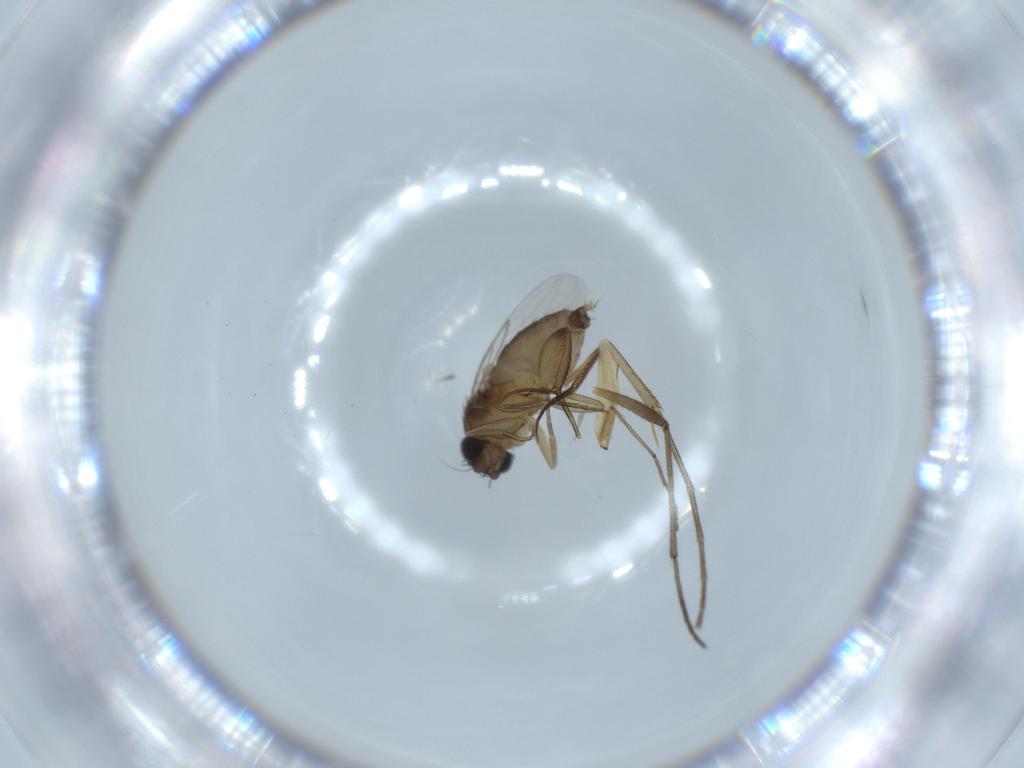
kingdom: Animalia
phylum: Arthropoda
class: Insecta
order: Diptera
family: Phoridae
